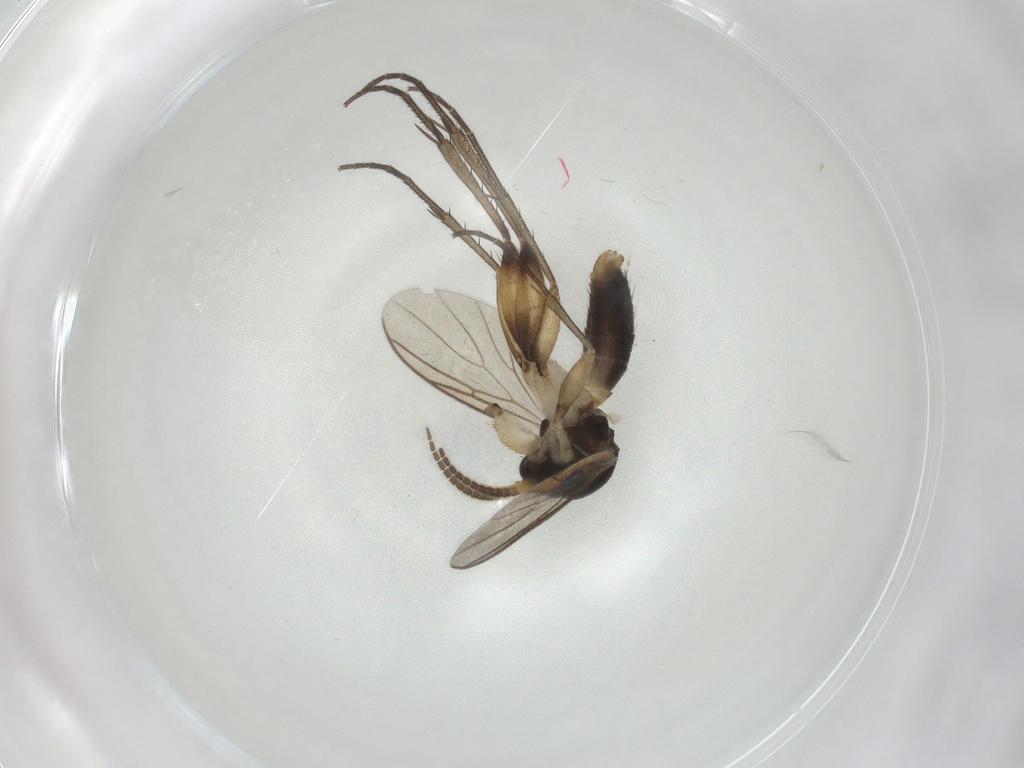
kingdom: Animalia
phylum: Arthropoda
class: Insecta
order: Diptera
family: Mycetophilidae
